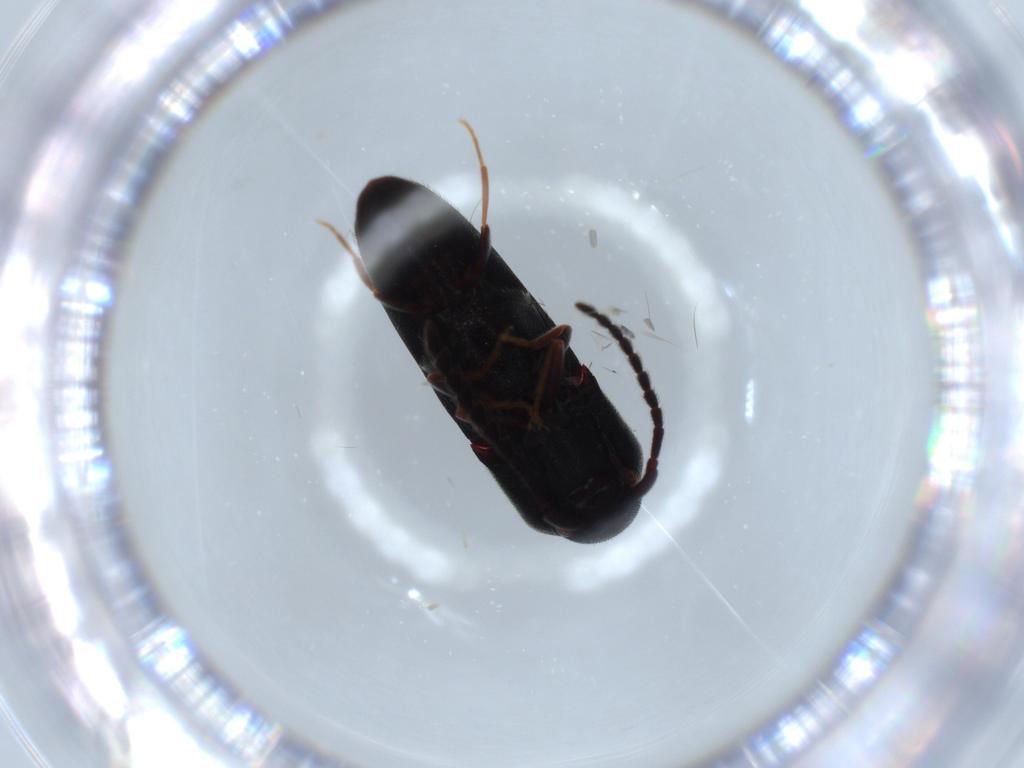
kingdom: Animalia
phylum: Arthropoda
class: Insecta
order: Coleoptera
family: Eucnemidae
